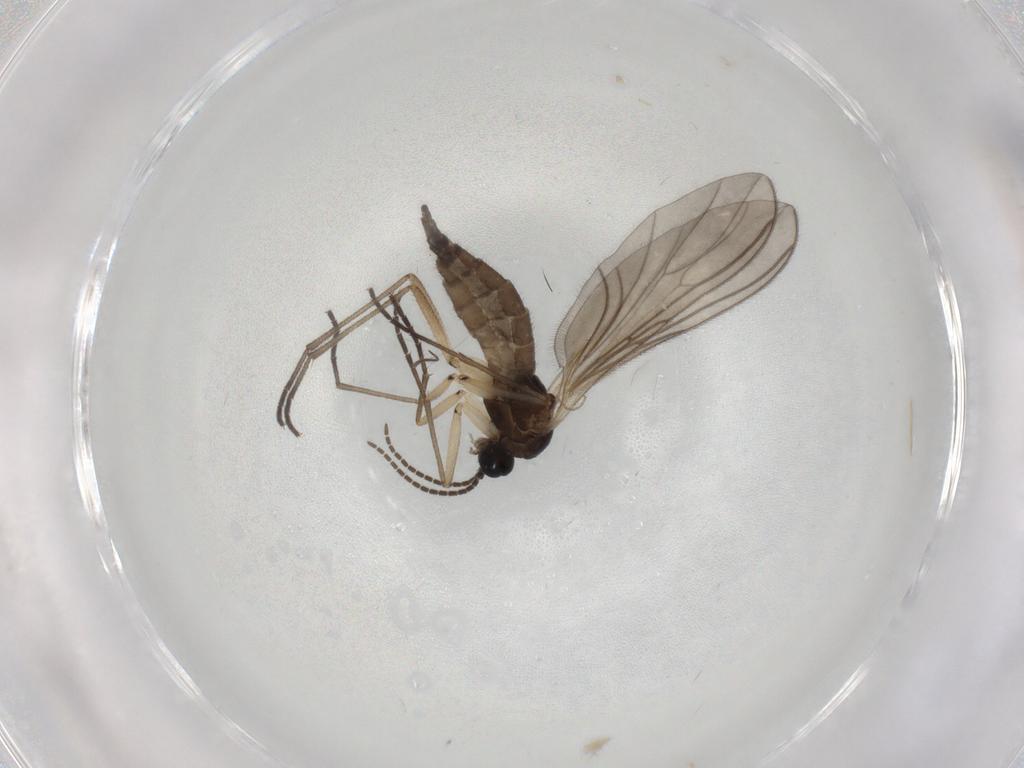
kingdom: Animalia
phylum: Arthropoda
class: Insecta
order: Diptera
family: Sciaridae
